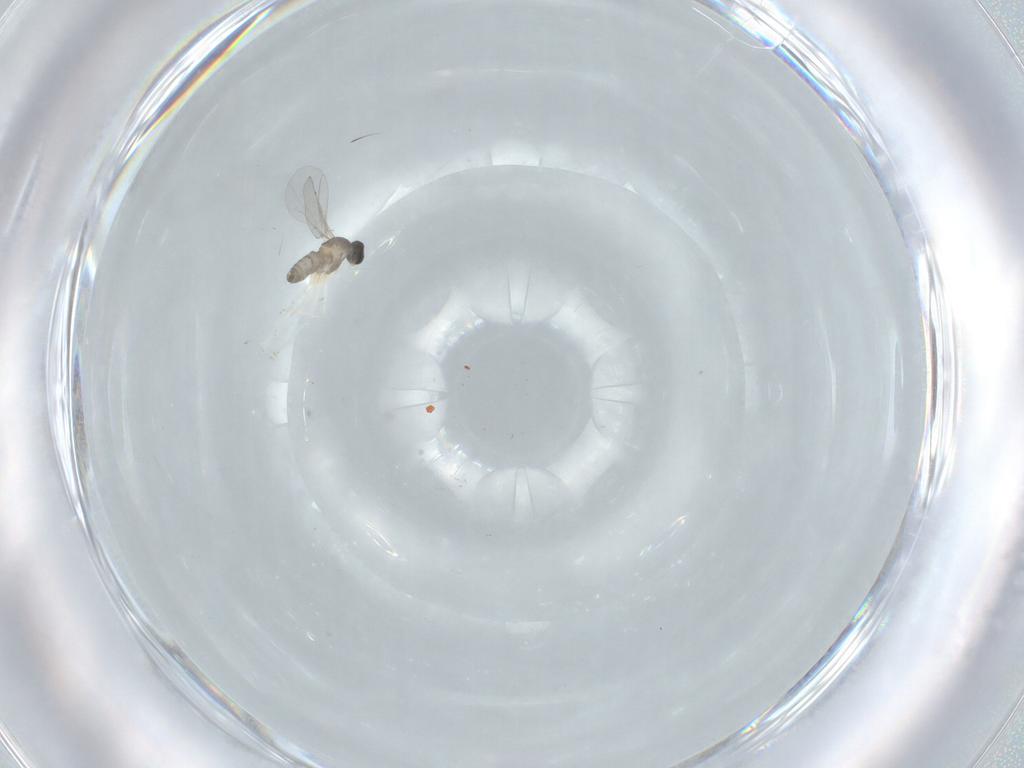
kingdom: Animalia
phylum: Arthropoda
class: Insecta
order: Diptera
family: Cecidomyiidae
